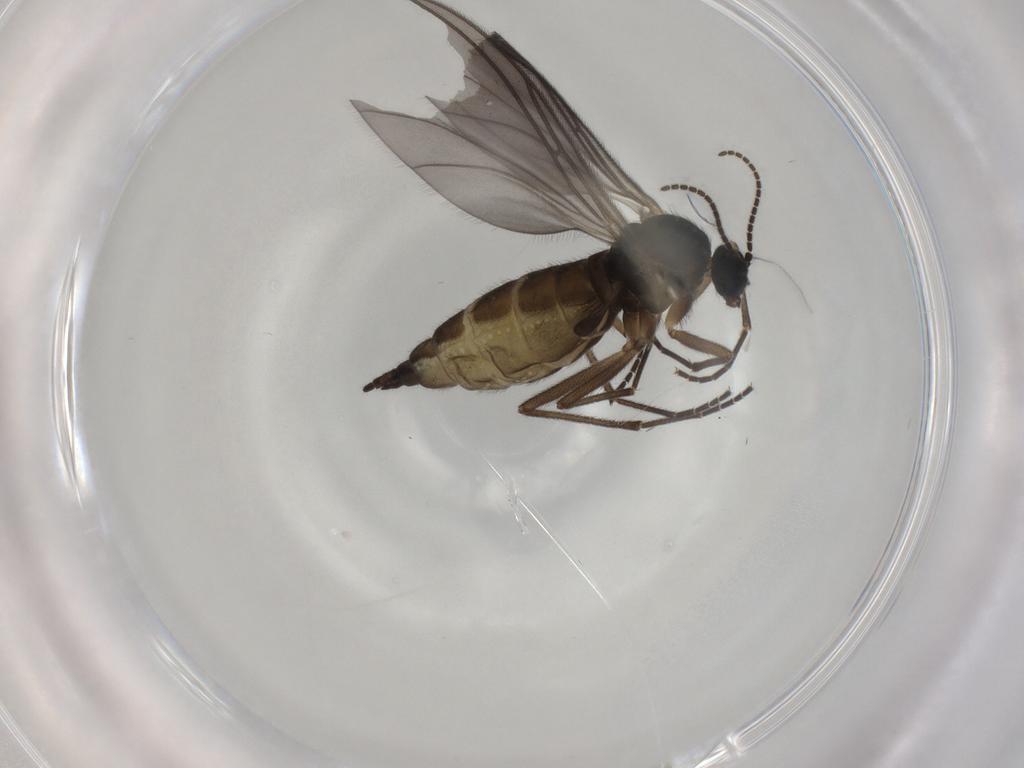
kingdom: Animalia
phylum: Arthropoda
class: Insecta
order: Diptera
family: Sciaridae
